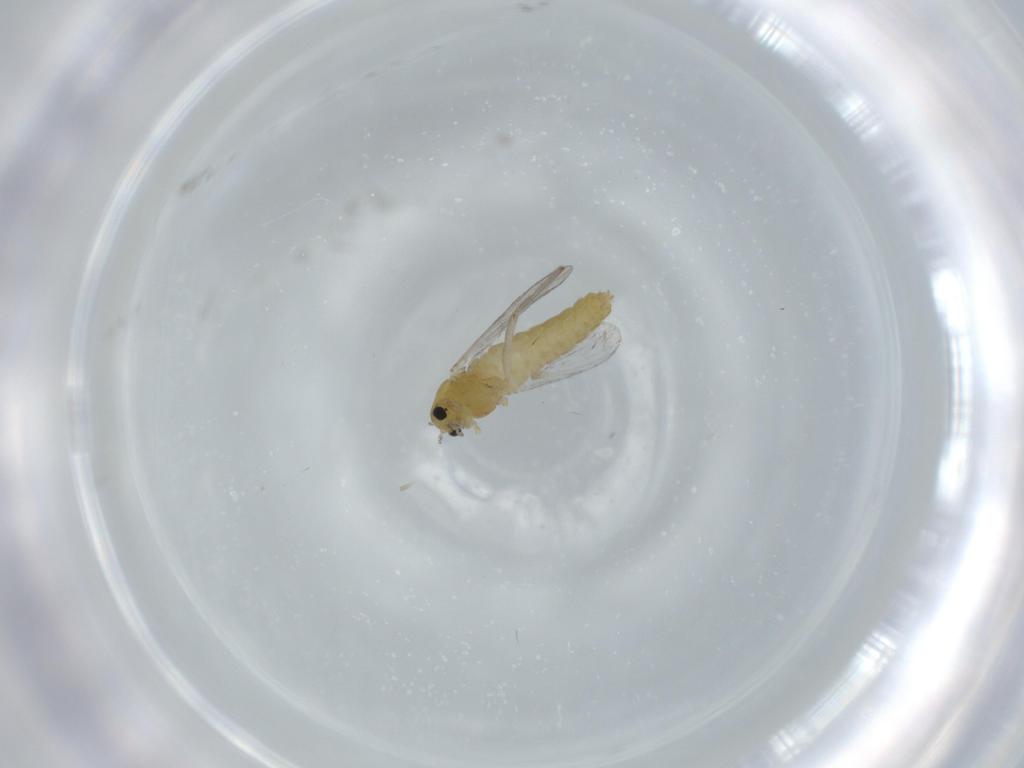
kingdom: Animalia
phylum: Arthropoda
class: Insecta
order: Diptera
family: Chironomidae
